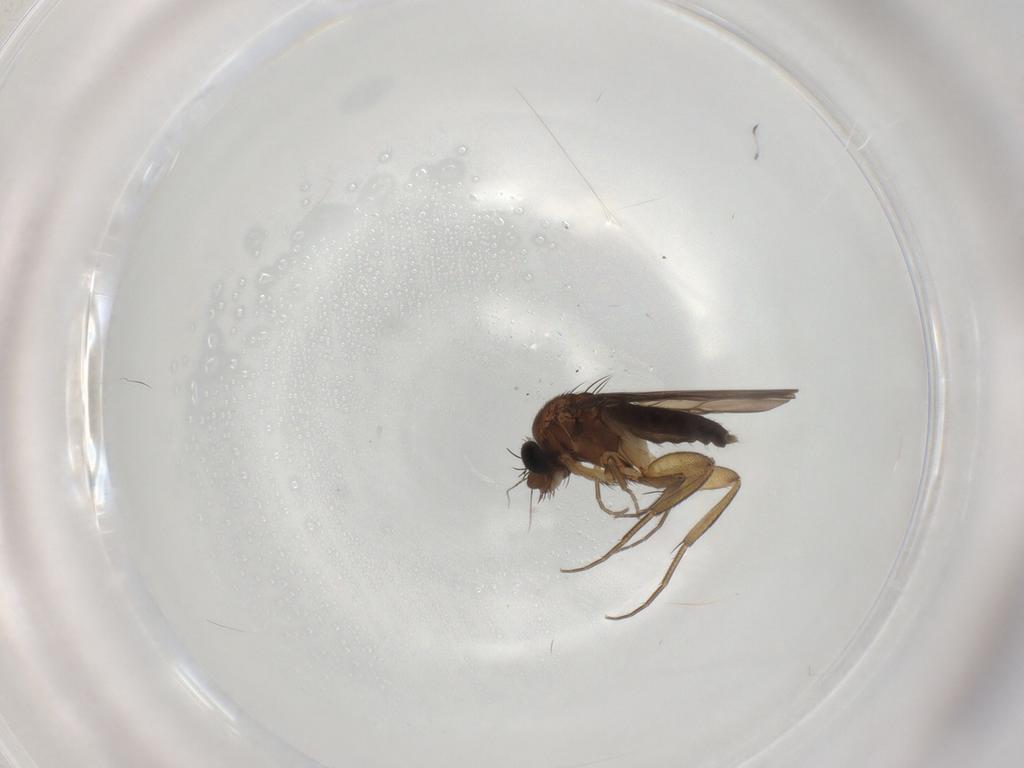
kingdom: Animalia
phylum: Arthropoda
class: Insecta
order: Diptera
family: Phoridae
